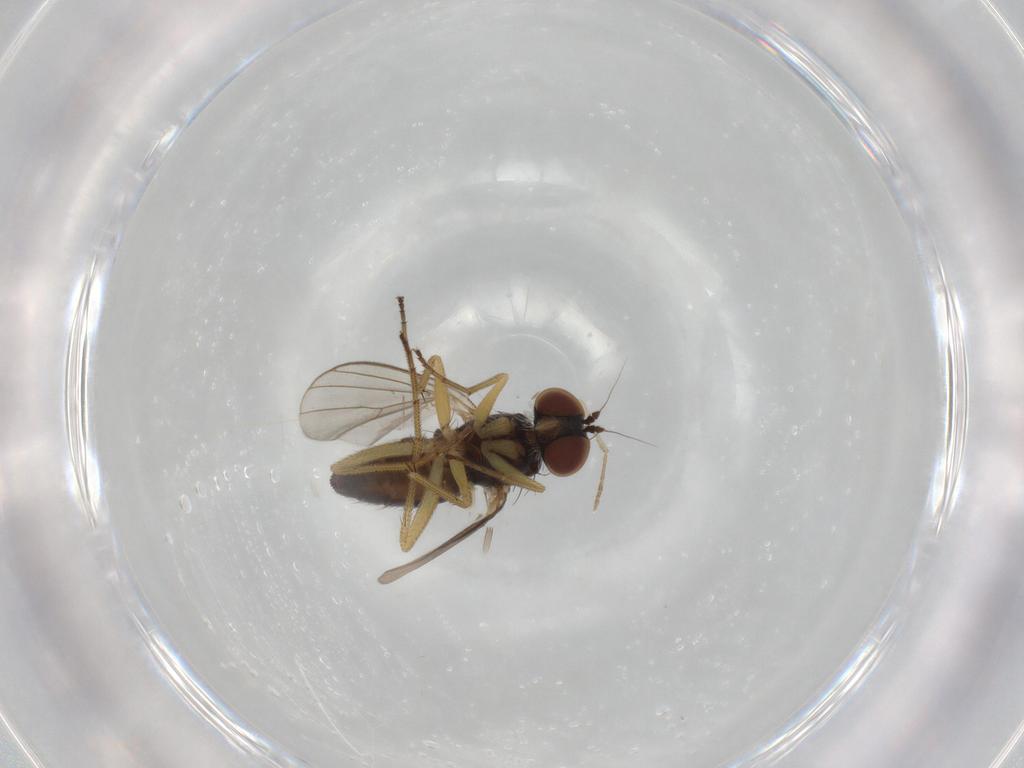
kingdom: Animalia
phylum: Arthropoda
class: Insecta
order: Diptera
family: Dolichopodidae
